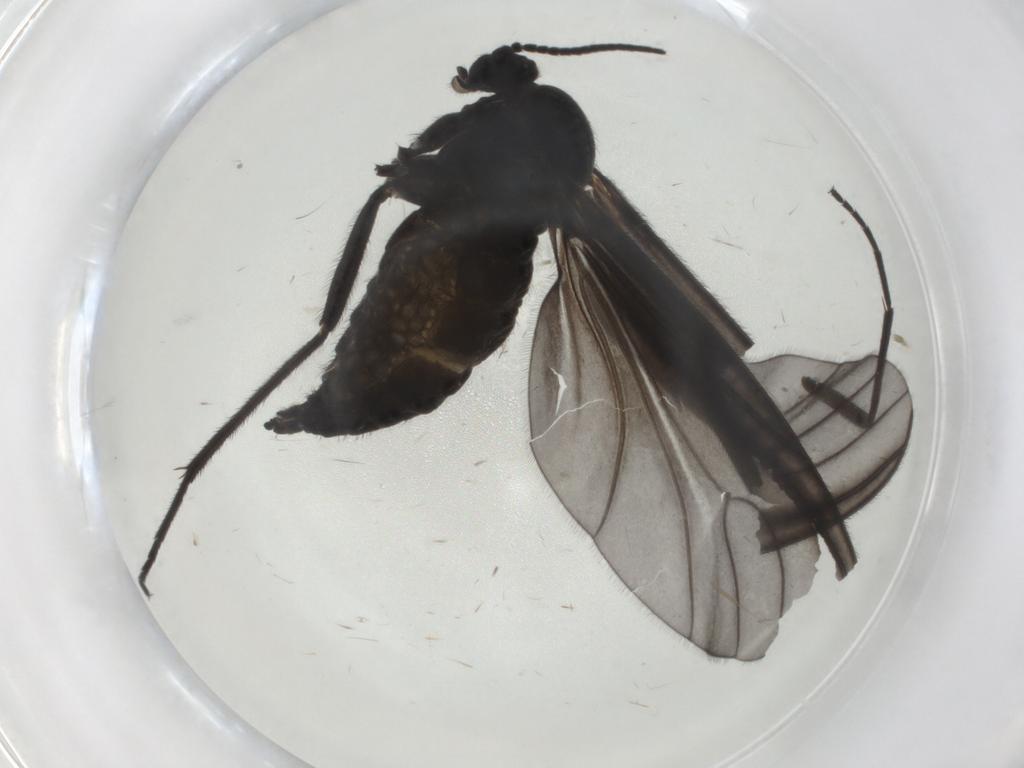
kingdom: Animalia
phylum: Arthropoda
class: Insecta
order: Diptera
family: Sciaridae
